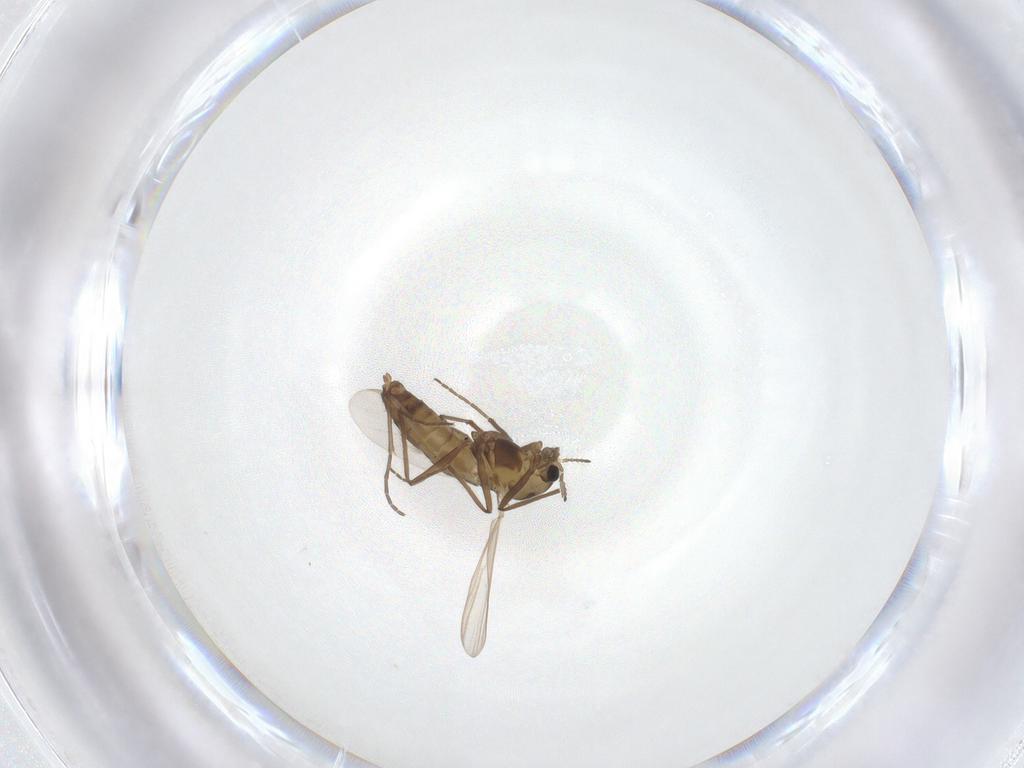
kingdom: Animalia
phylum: Arthropoda
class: Insecta
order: Diptera
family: Chironomidae
